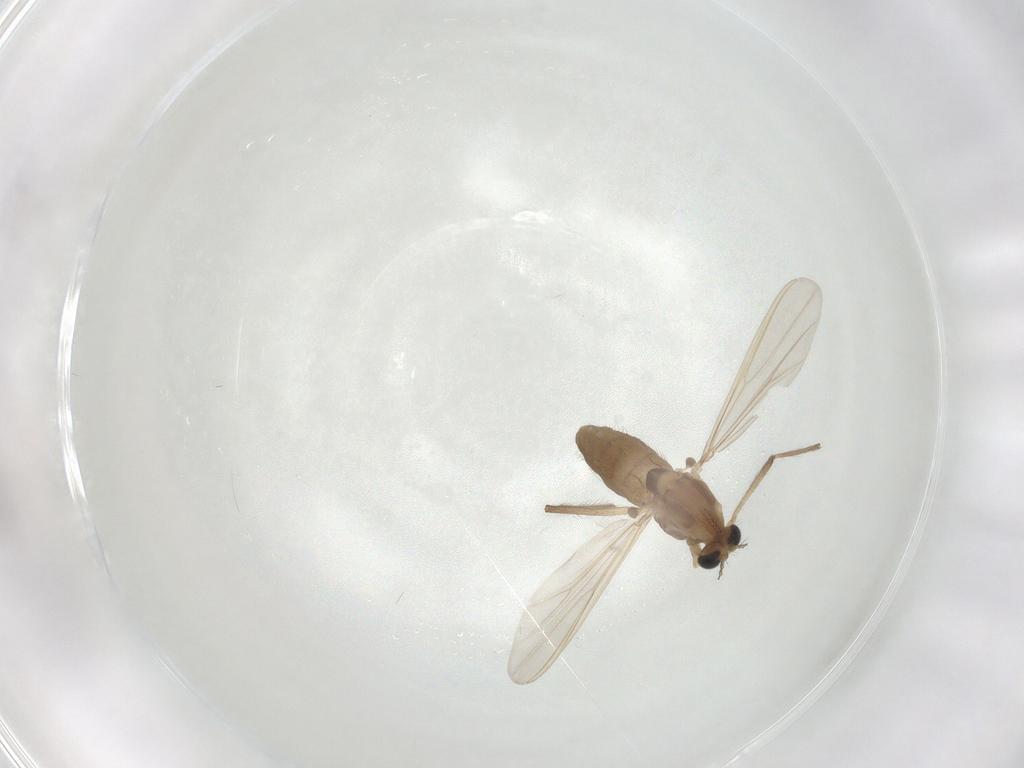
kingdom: Animalia
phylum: Arthropoda
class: Insecta
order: Diptera
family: Chironomidae
